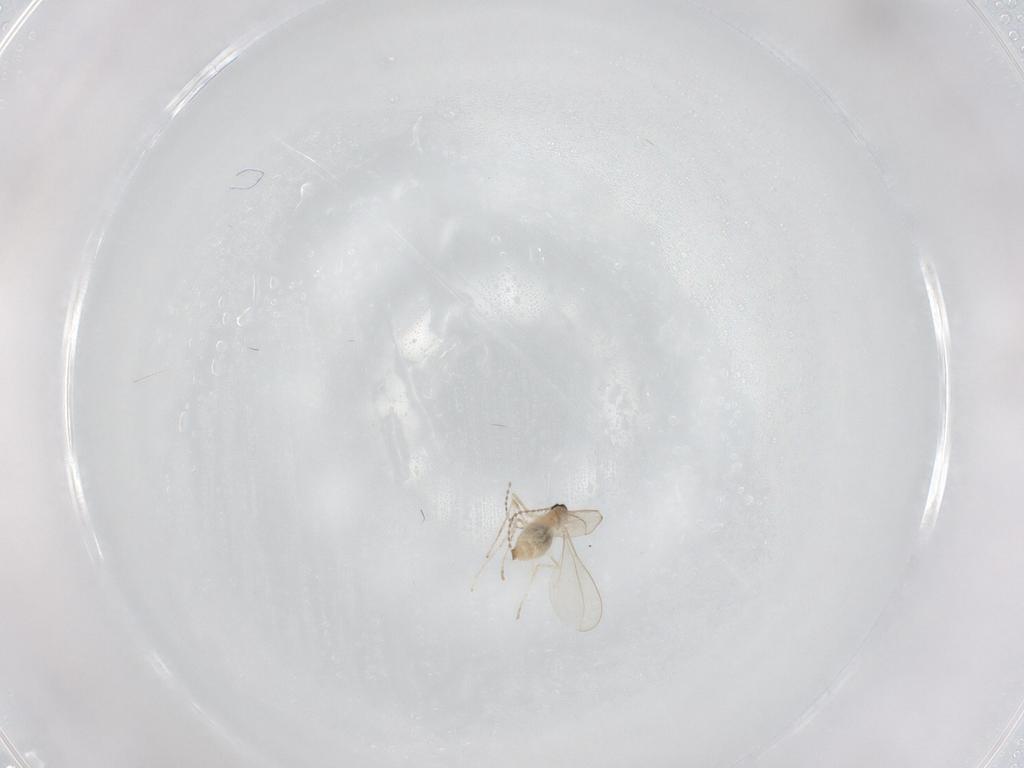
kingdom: Animalia
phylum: Arthropoda
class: Insecta
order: Diptera
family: Cecidomyiidae
